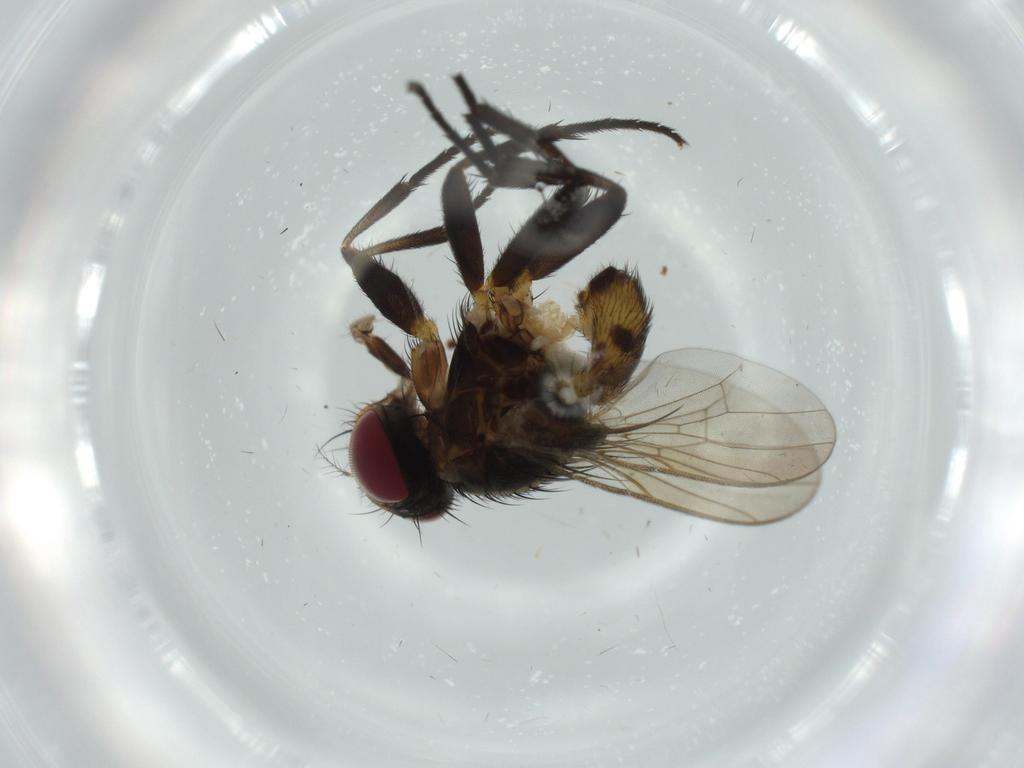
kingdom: Animalia
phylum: Arthropoda
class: Insecta
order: Diptera
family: Anthomyiidae
